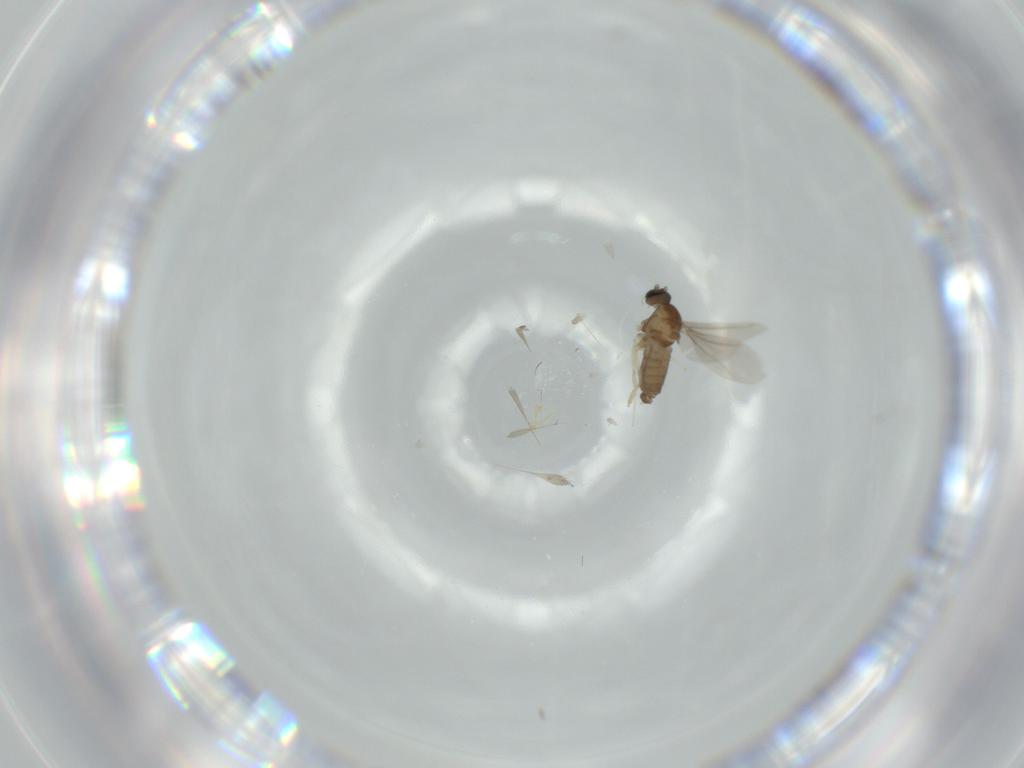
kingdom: Animalia
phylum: Arthropoda
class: Insecta
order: Diptera
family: Cecidomyiidae
